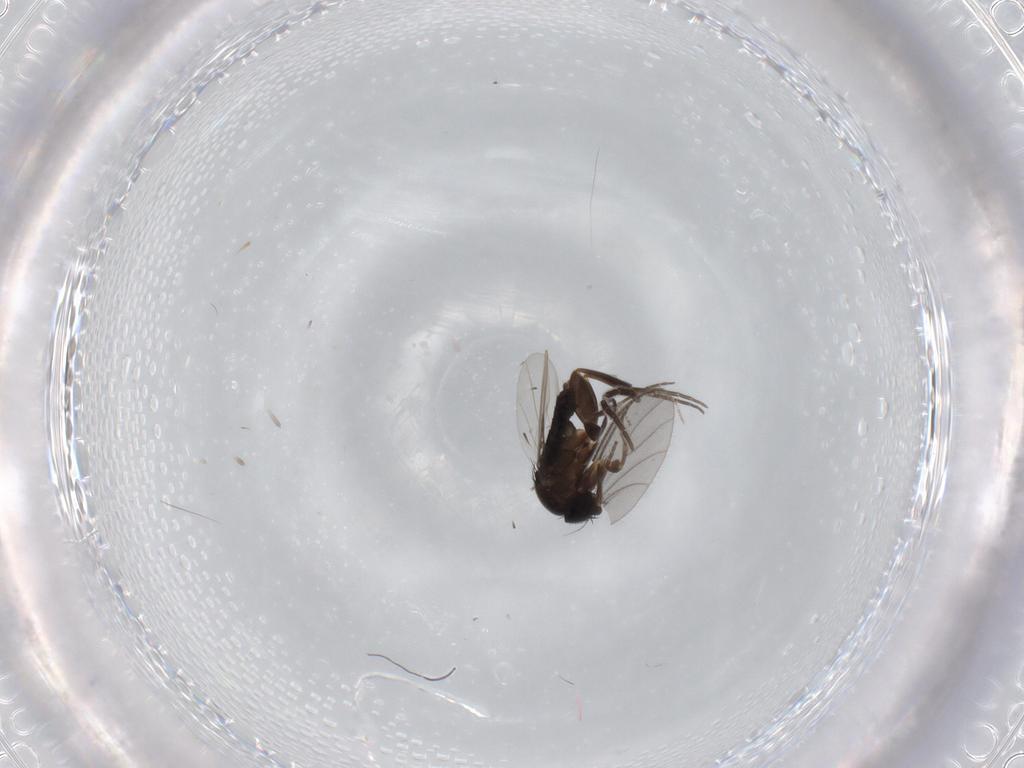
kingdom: Animalia
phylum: Arthropoda
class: Insecta
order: Diptera
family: Phoridae
